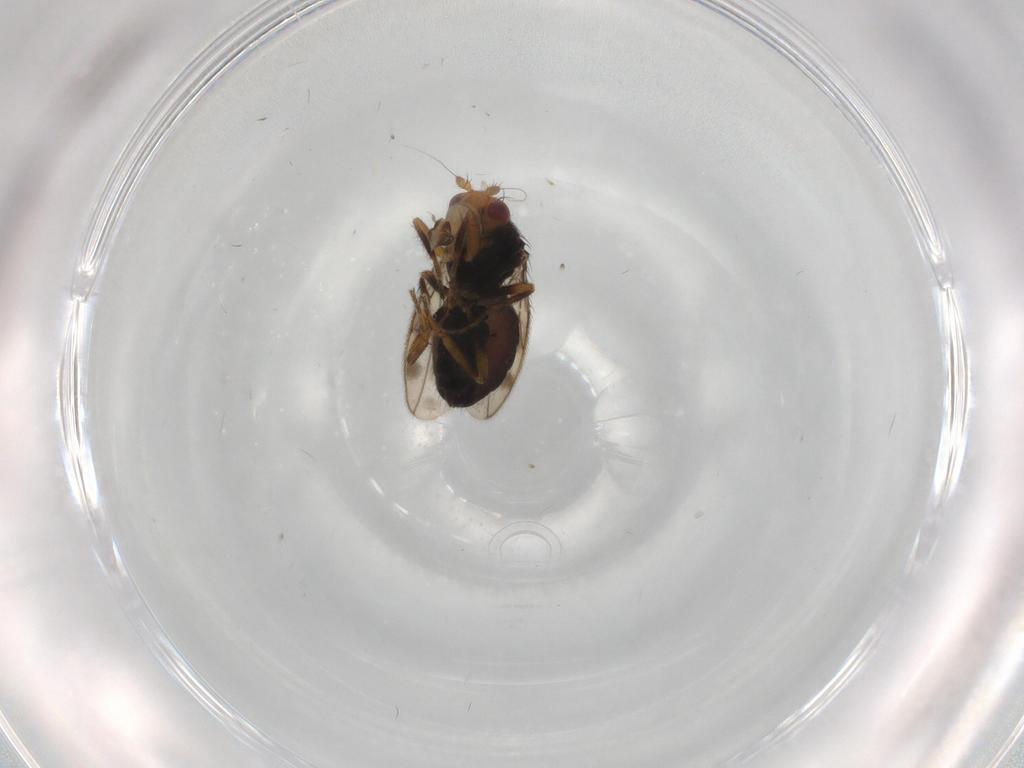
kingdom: Animalia
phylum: Arthropoda
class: Insecta
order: Diptera
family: Sphaeroceridae
